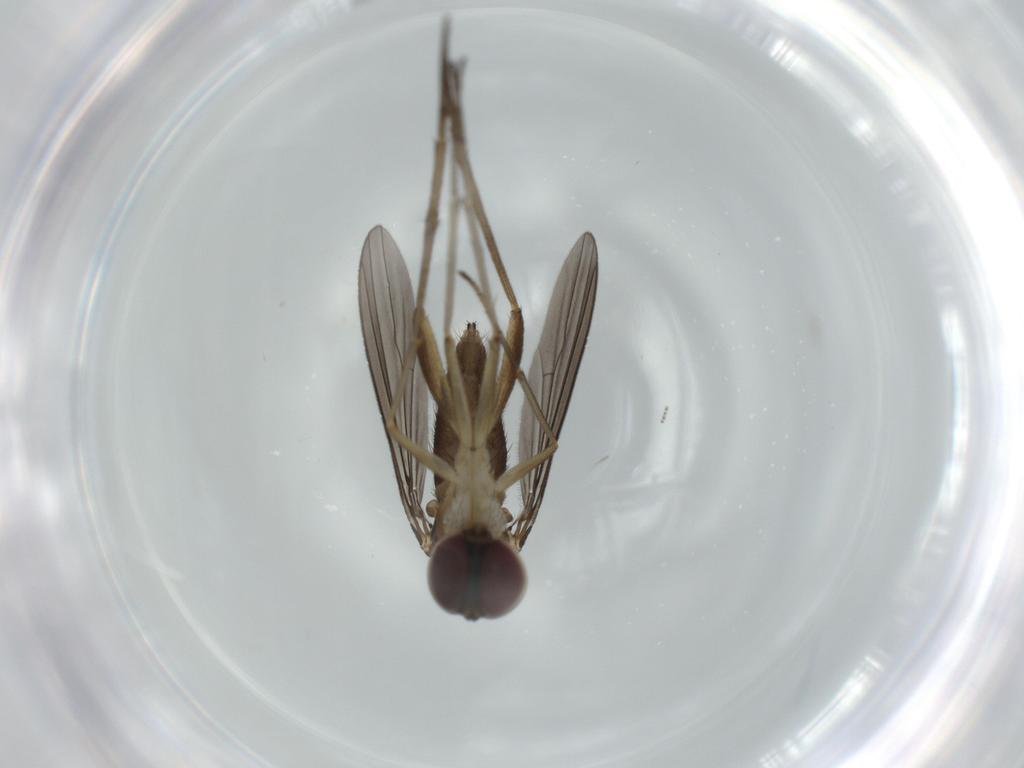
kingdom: Animalia
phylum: Arthropoda
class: Insecta
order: Diptera
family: Dolichopodidae
